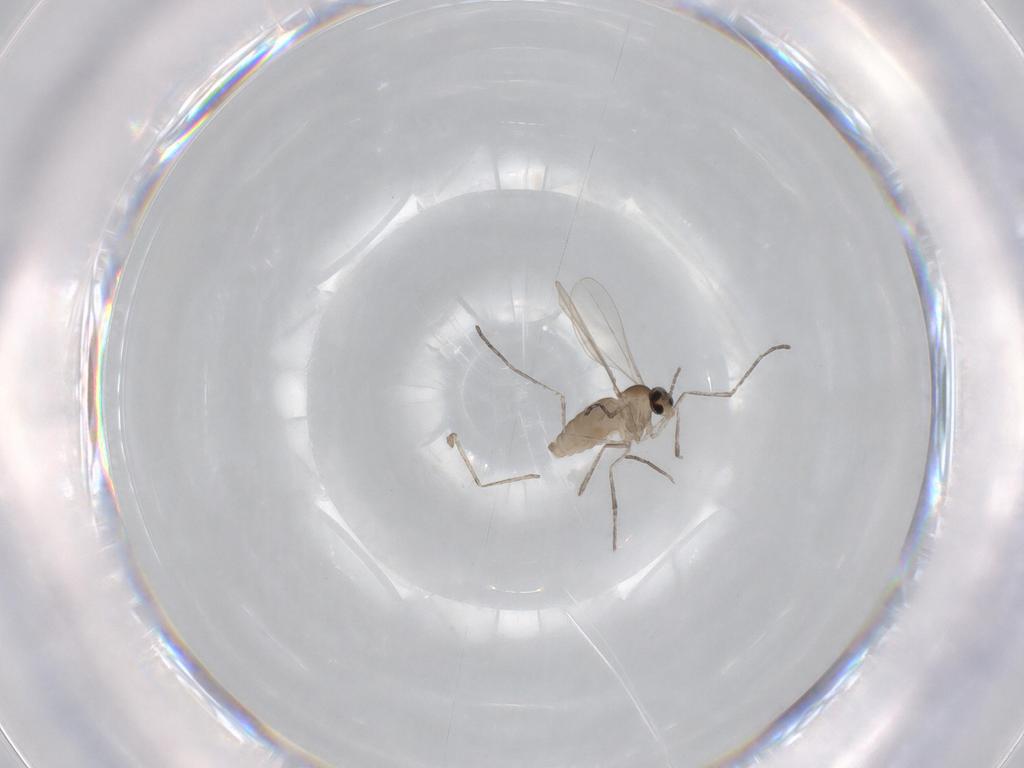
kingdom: Animalia
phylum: Arthropoda
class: Insecta
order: Diptera
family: Cecidomyiidae
